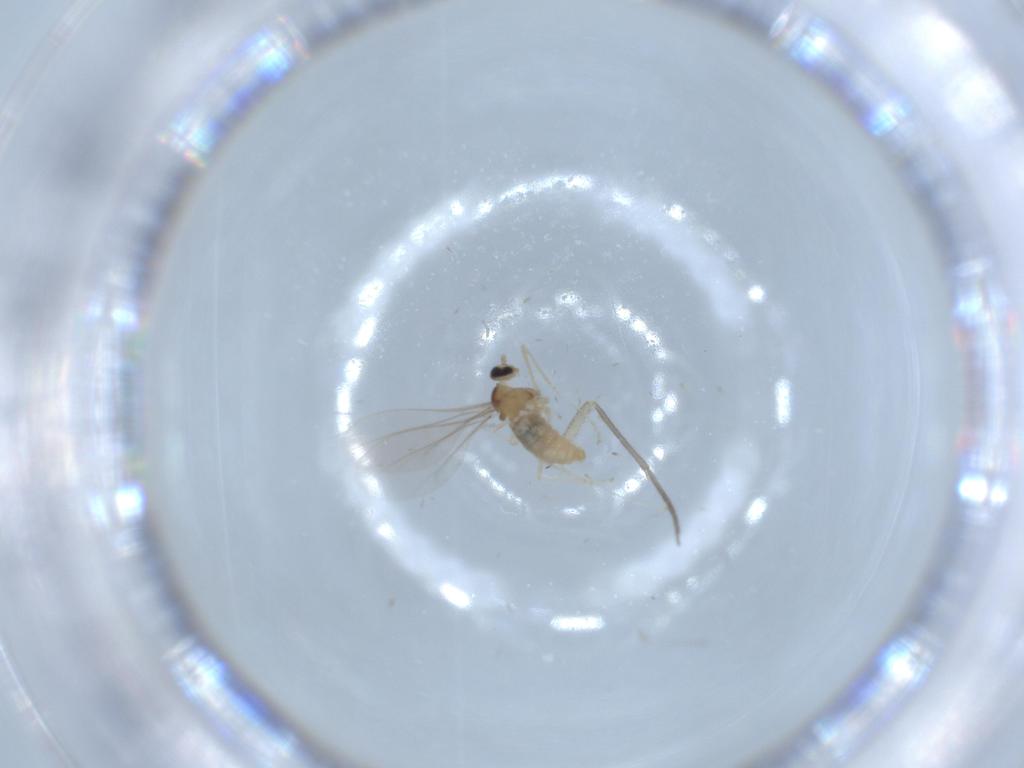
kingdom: Animalia
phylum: Arthropoda
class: Insecta
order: Diptera
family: Cecidomyiidae
